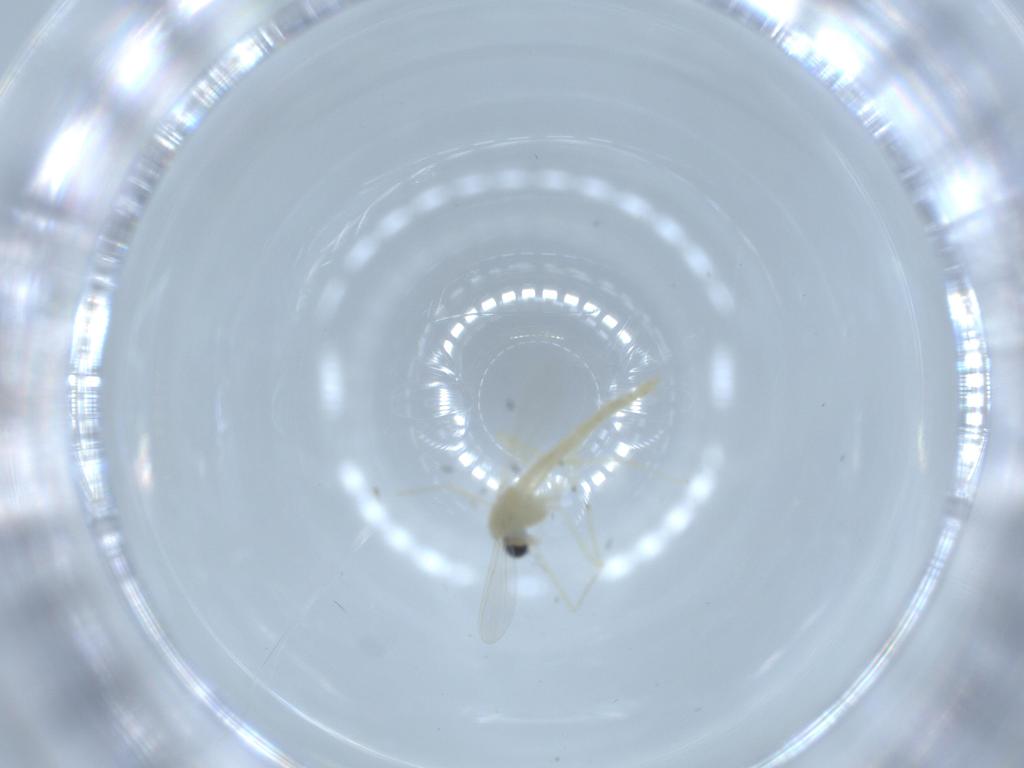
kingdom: Animalia
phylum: Arthropoda
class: Insecta
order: Diptera
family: Chironomidae
